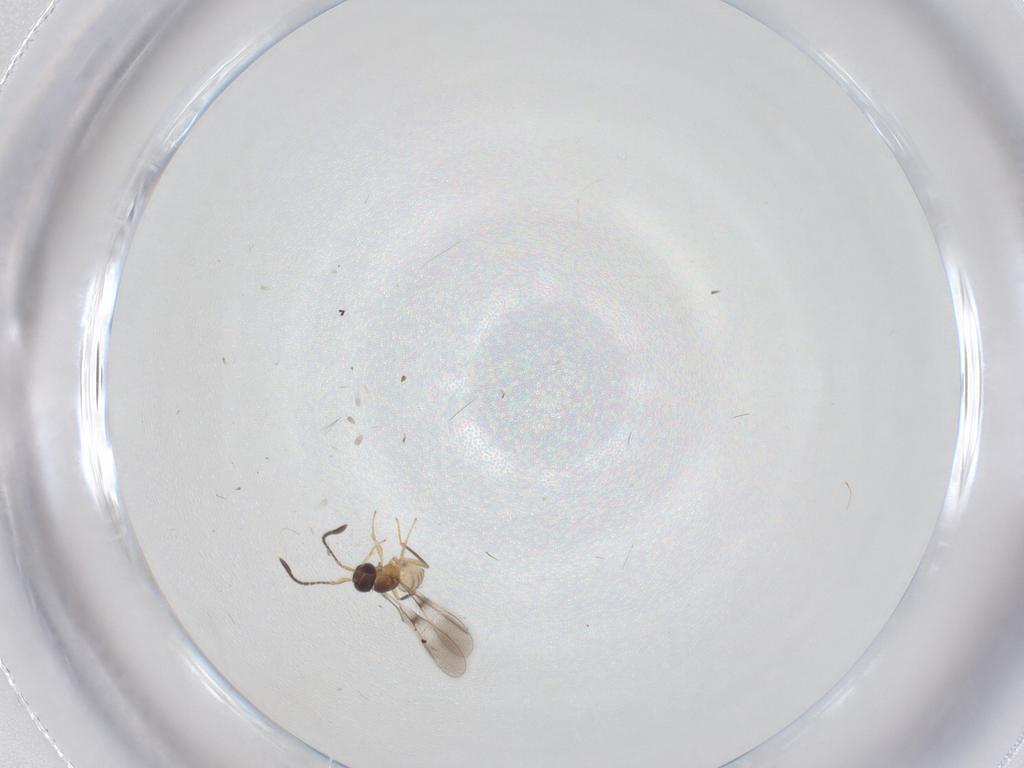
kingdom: Animalia
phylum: Arthropoda
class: Insecta
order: Hymenoptera
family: Mymaridae
